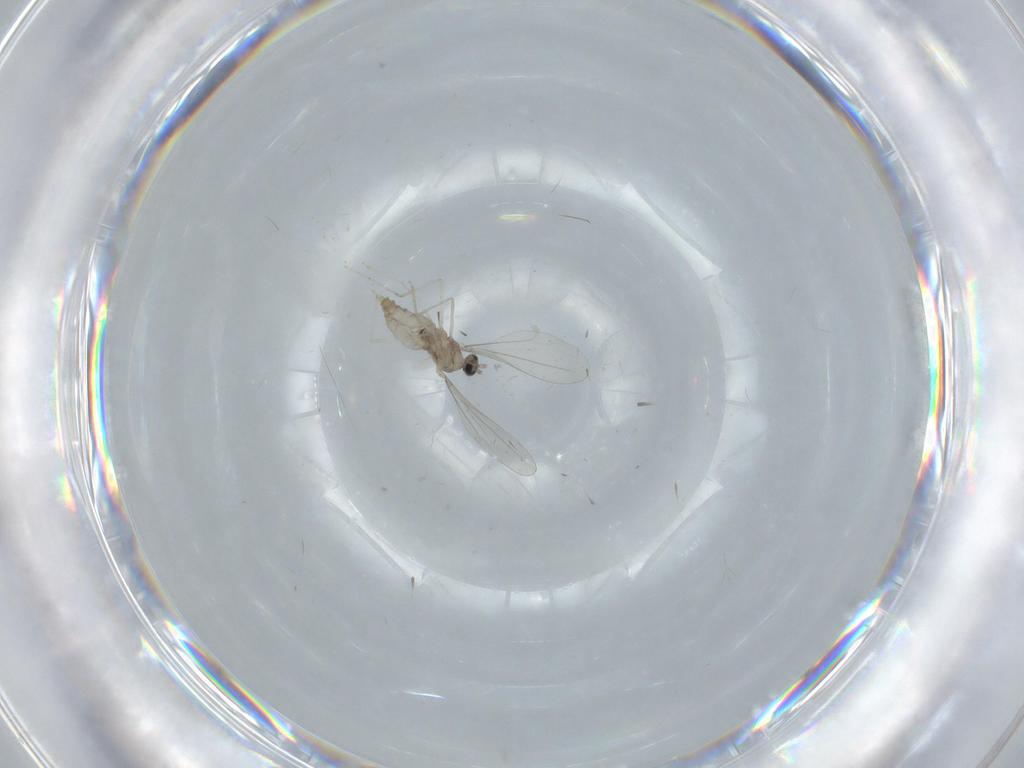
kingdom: Animalia
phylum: Arthropoda
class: Insecta
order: Diptera
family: Cecidomyiidae
